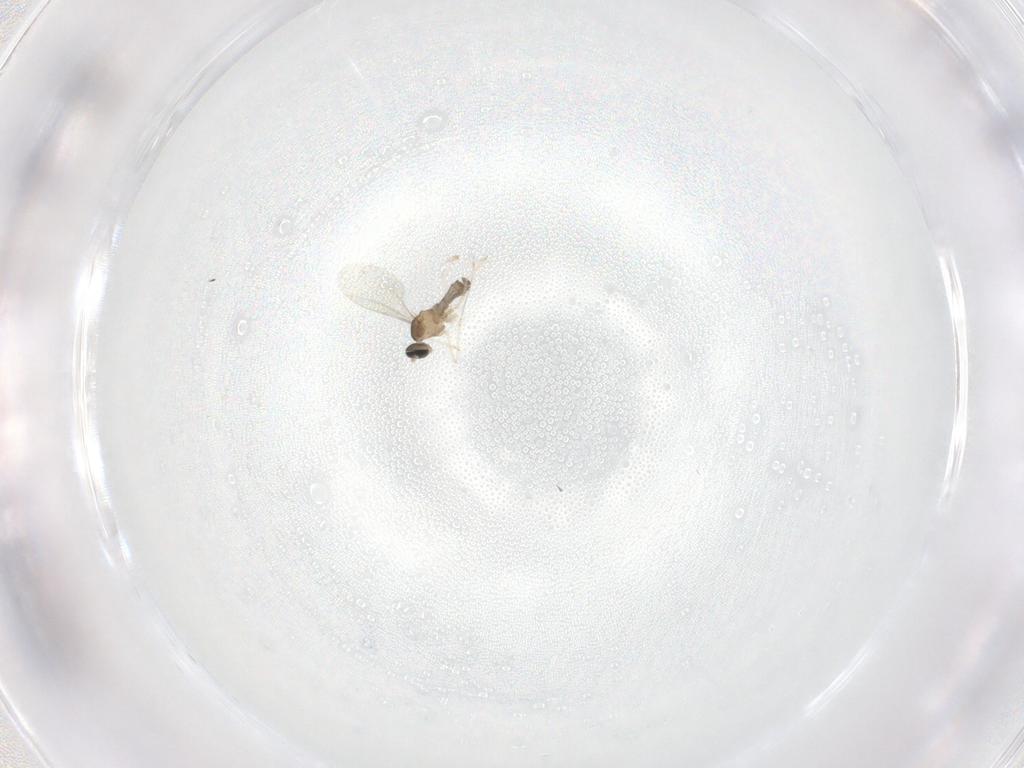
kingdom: Animalia
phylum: Arthropoda
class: Insecta
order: Diptera
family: Cecidomyiidae
